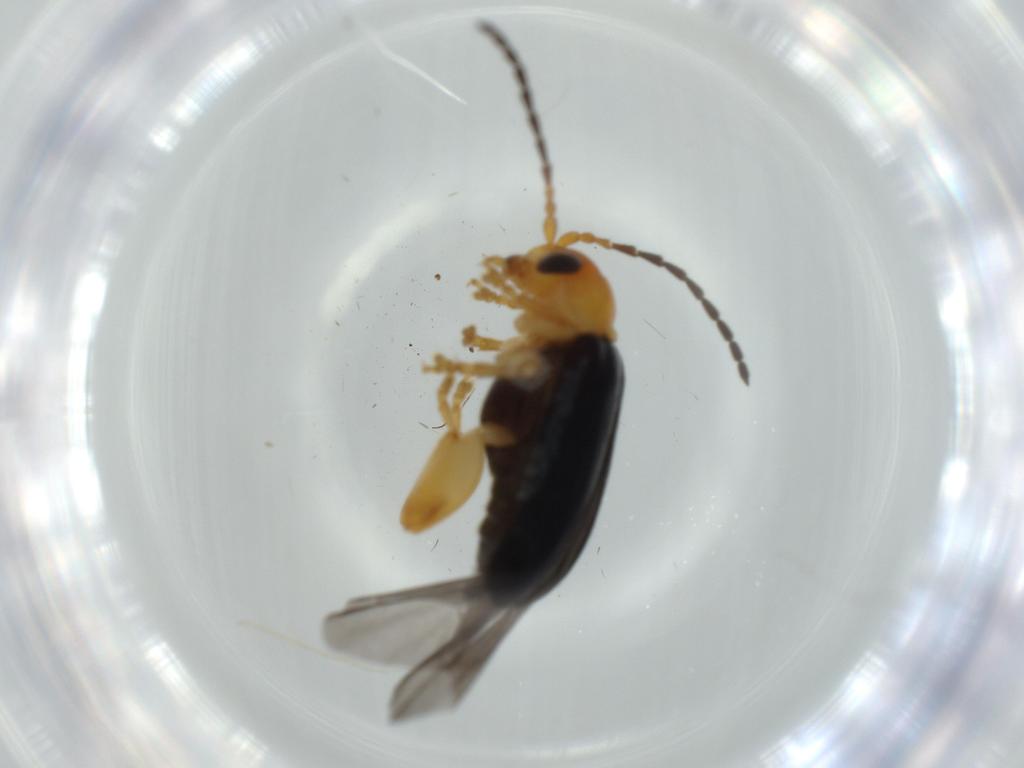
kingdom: Animalia
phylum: Arthropoda
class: Insecta
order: Coleoptera
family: Chrysomelidae
